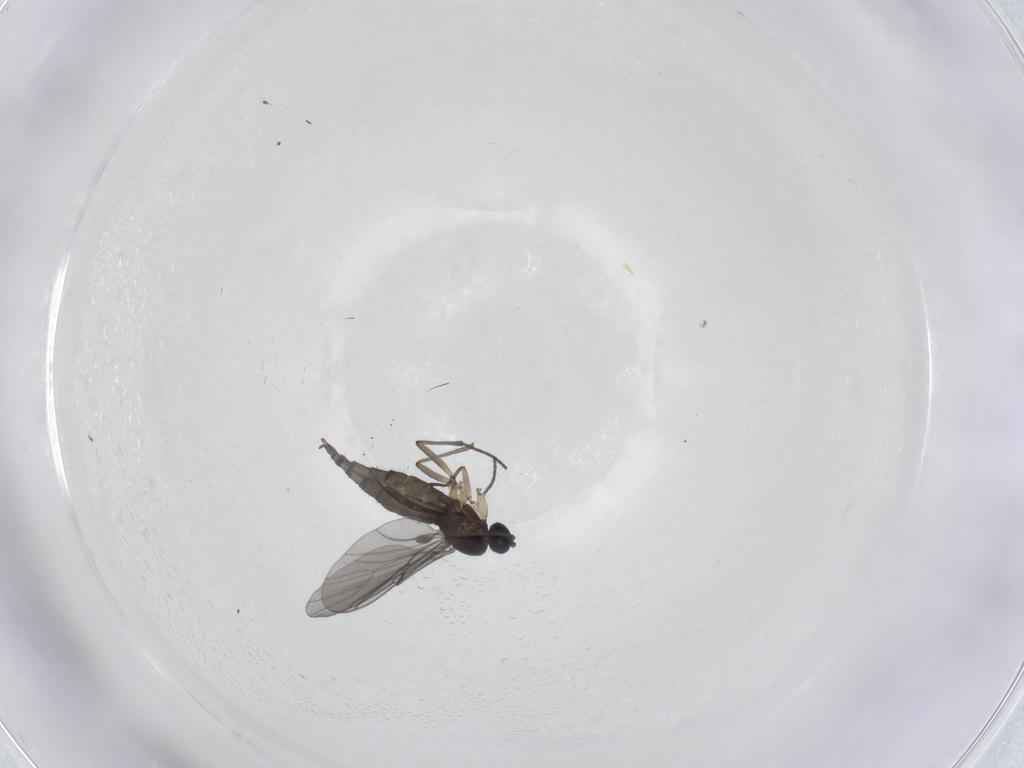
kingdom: Animalia
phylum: Arthropoda
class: Insecta
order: Diptera
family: Sciaridae
